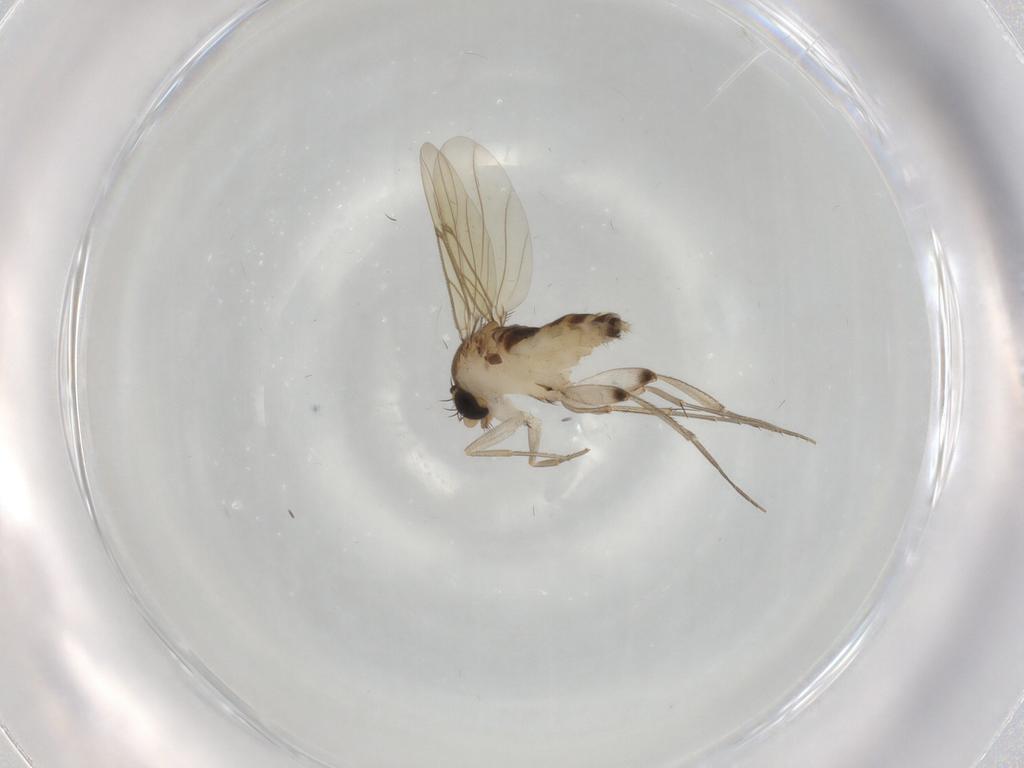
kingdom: Animalia
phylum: Arthropoda
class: Insecta
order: Diptera
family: Phoridae
